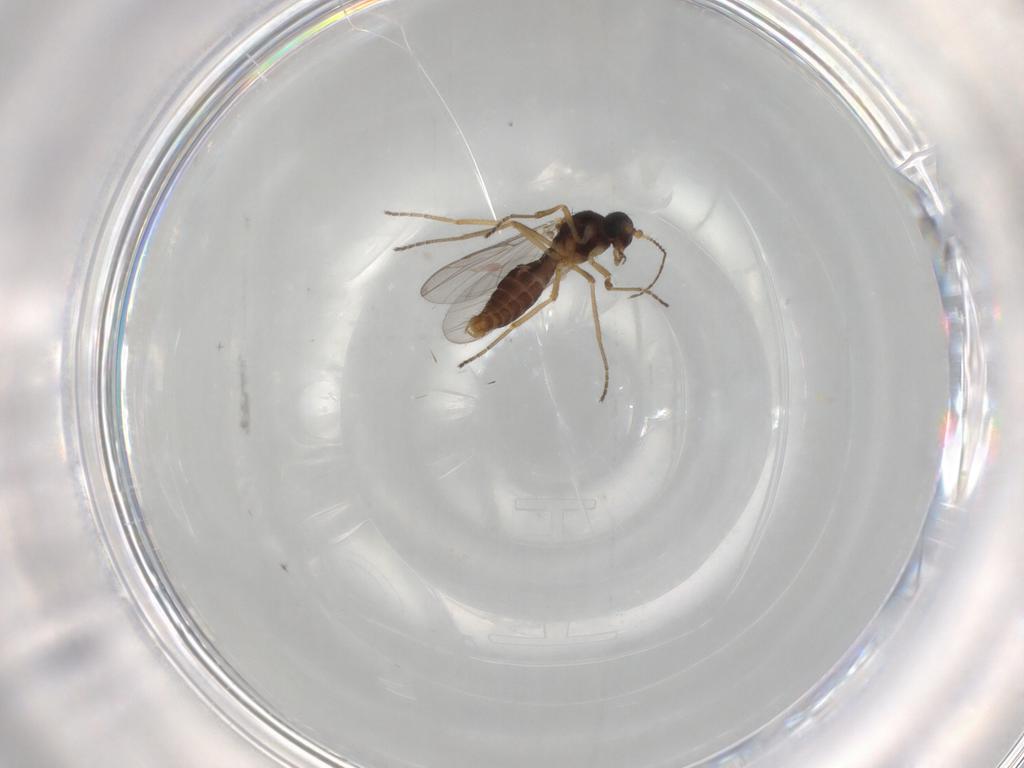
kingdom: Animalia
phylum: Arthropoda
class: Insecta
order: Diptera
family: Ceratopogonidae
